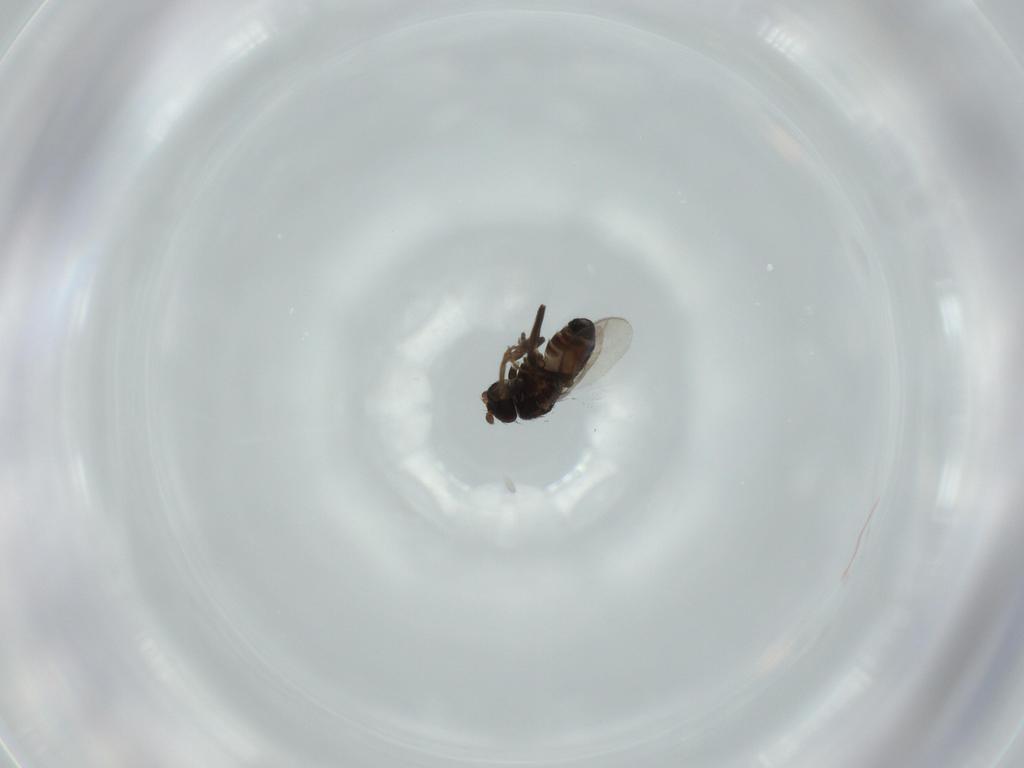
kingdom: Animalia
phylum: Arthropoda
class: Insecta
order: Diptera
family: Sphaeroceridae
